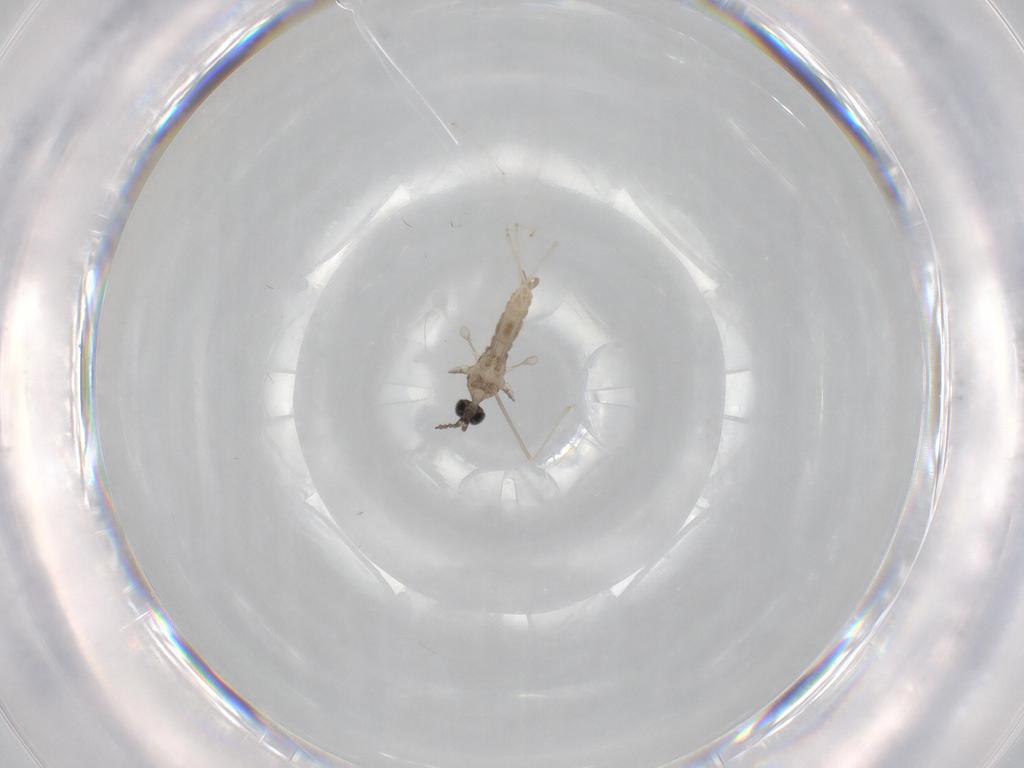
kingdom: Animalia
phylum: Arthropoda
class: Insecta
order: Diptera
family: Cecidomyiidae
